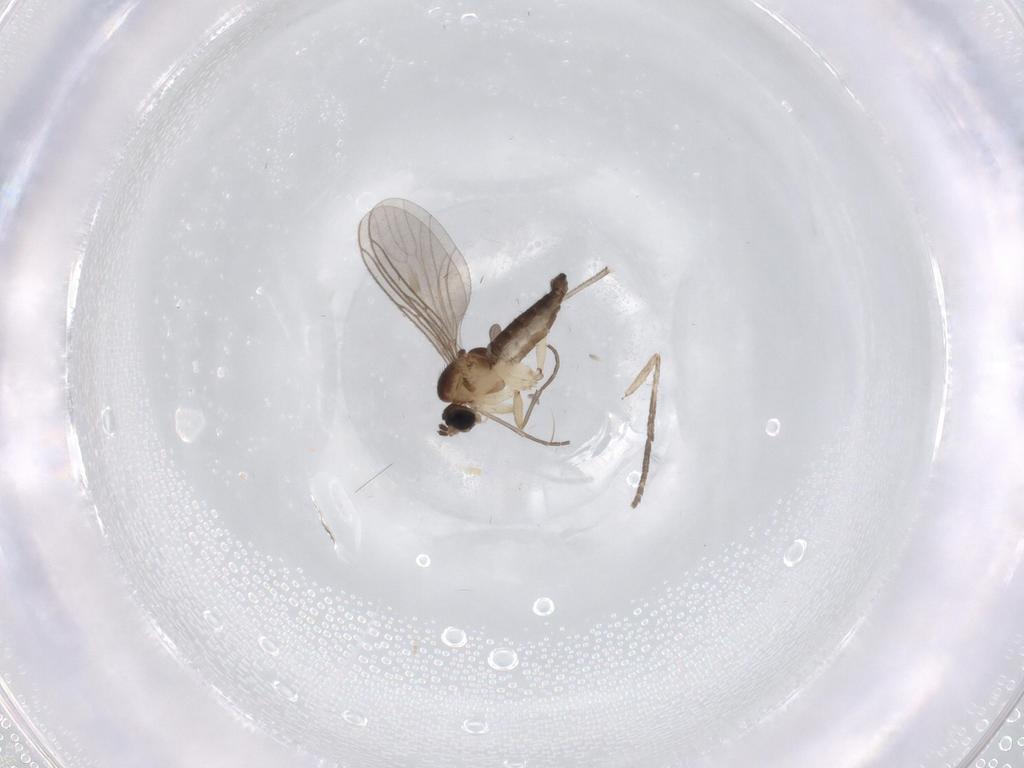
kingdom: Animalia
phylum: Arthropoda
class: Insecta
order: Diptera
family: Sciaridae
